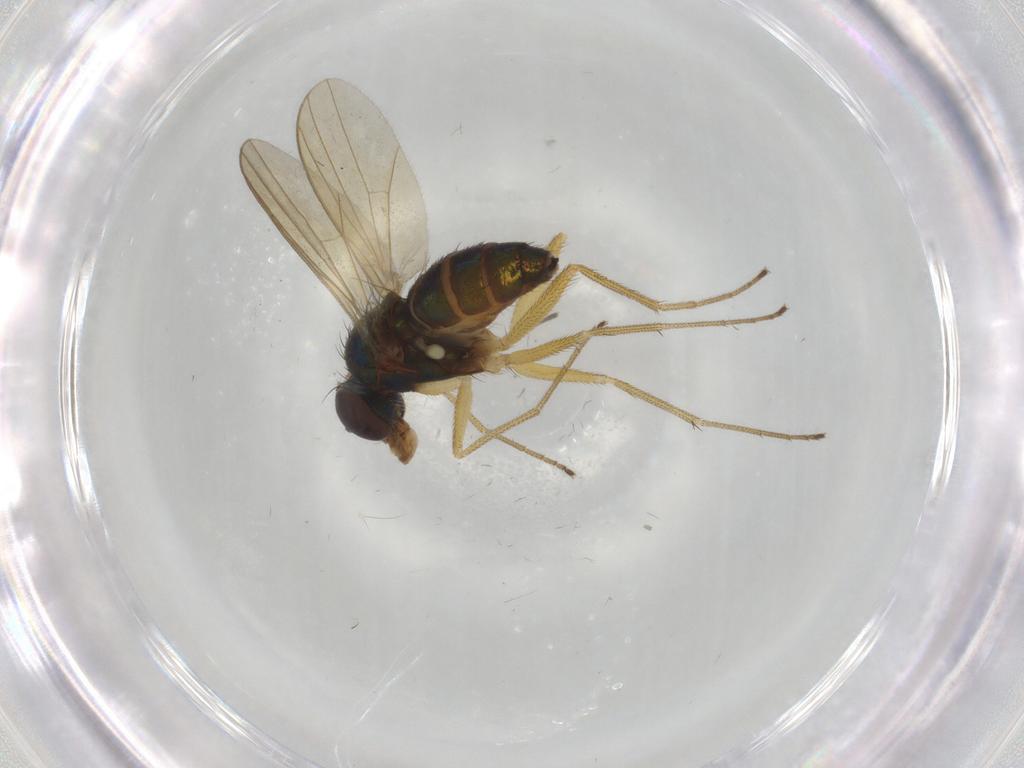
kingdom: Animalia
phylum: Arthropoda
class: Insecta
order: Diptera
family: Dolichopodidae
